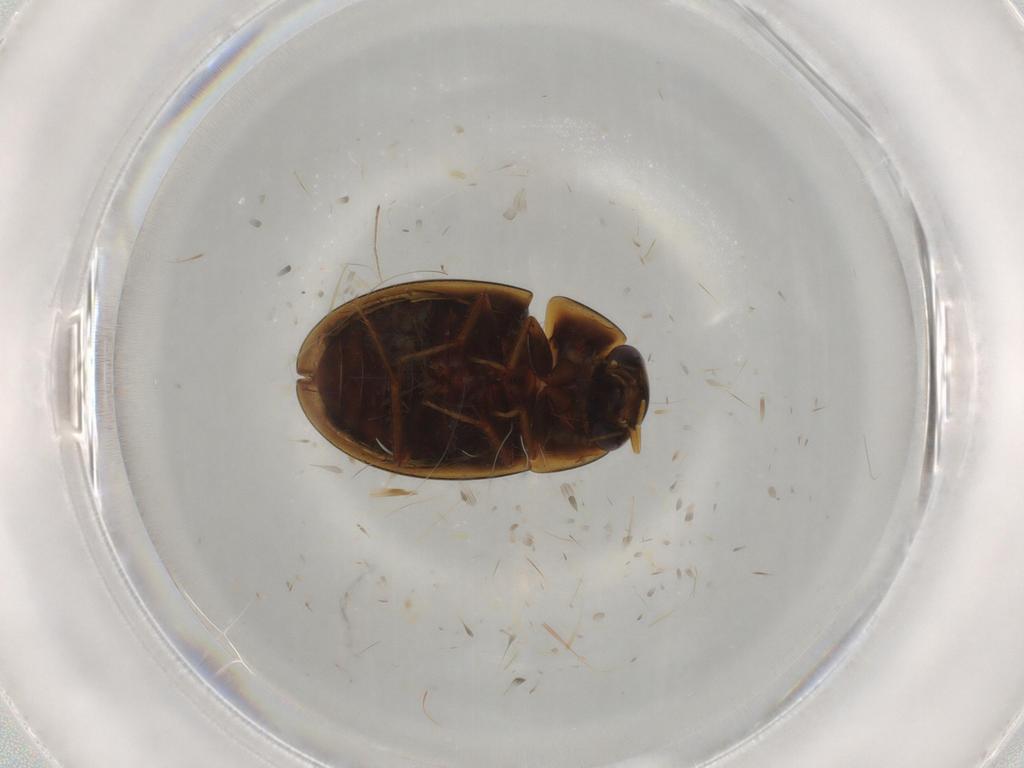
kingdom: Animalia
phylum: Arthropoda
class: Insecta
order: Coleoptera
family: Hydrophilidae
